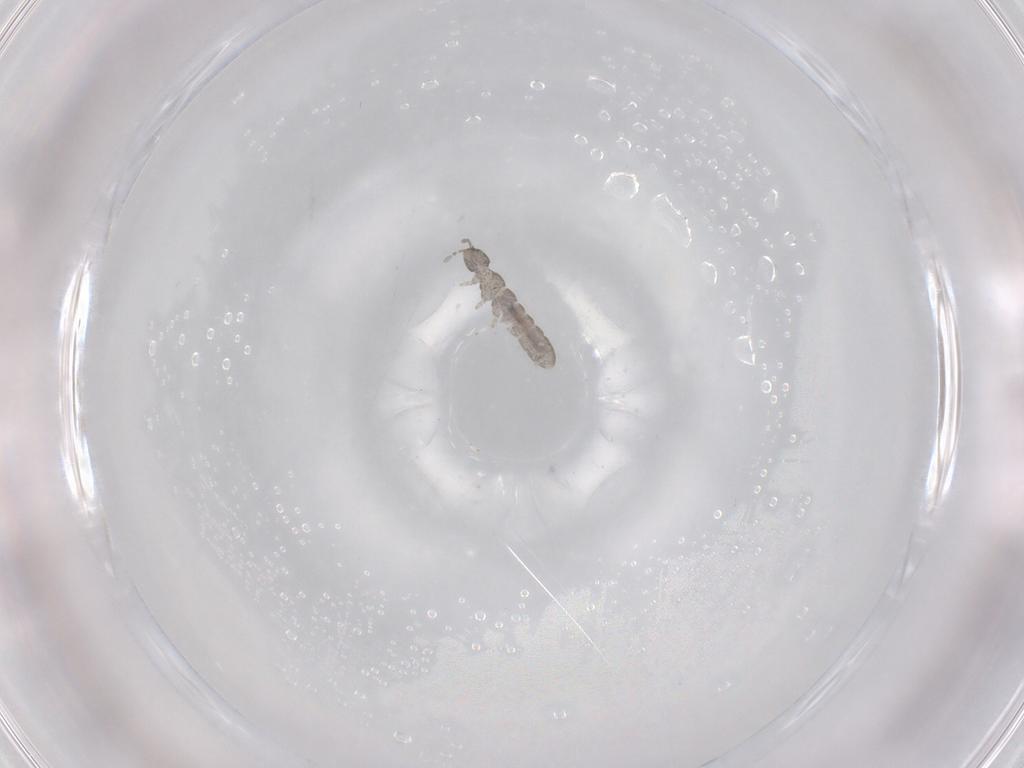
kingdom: Animalia
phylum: Arthropoda
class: Collembola
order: Entomobryomorpha
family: Isotomidae
